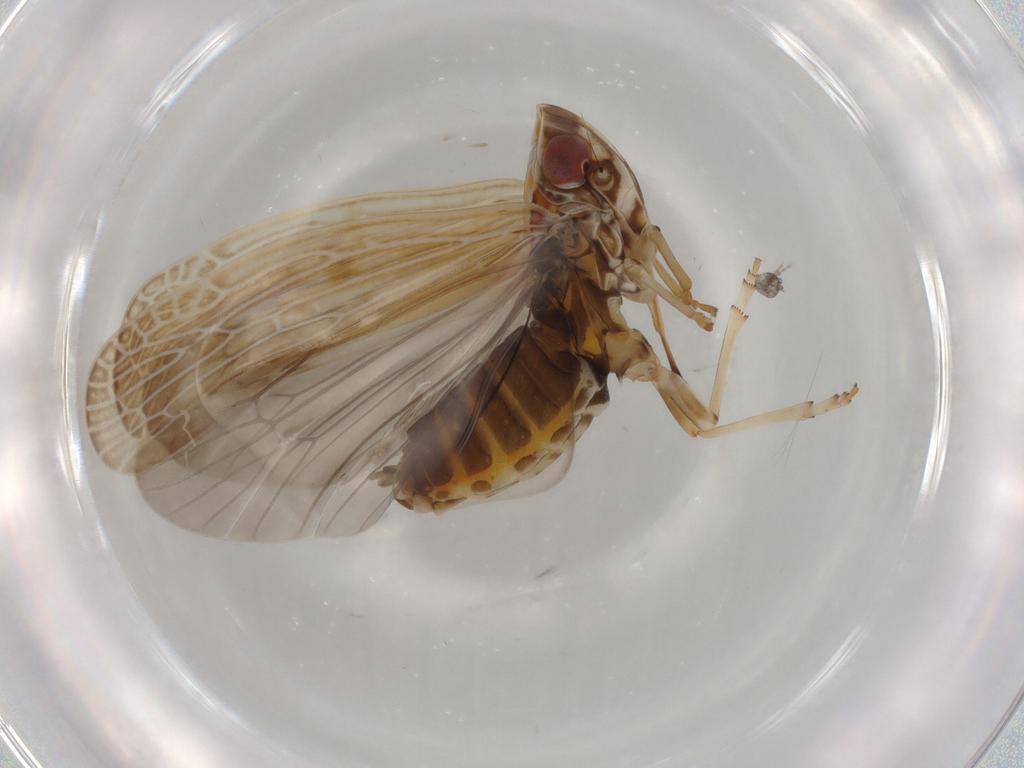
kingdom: Animalia
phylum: Arthropoda
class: Insecta
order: Hemiptera
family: Achilidae
